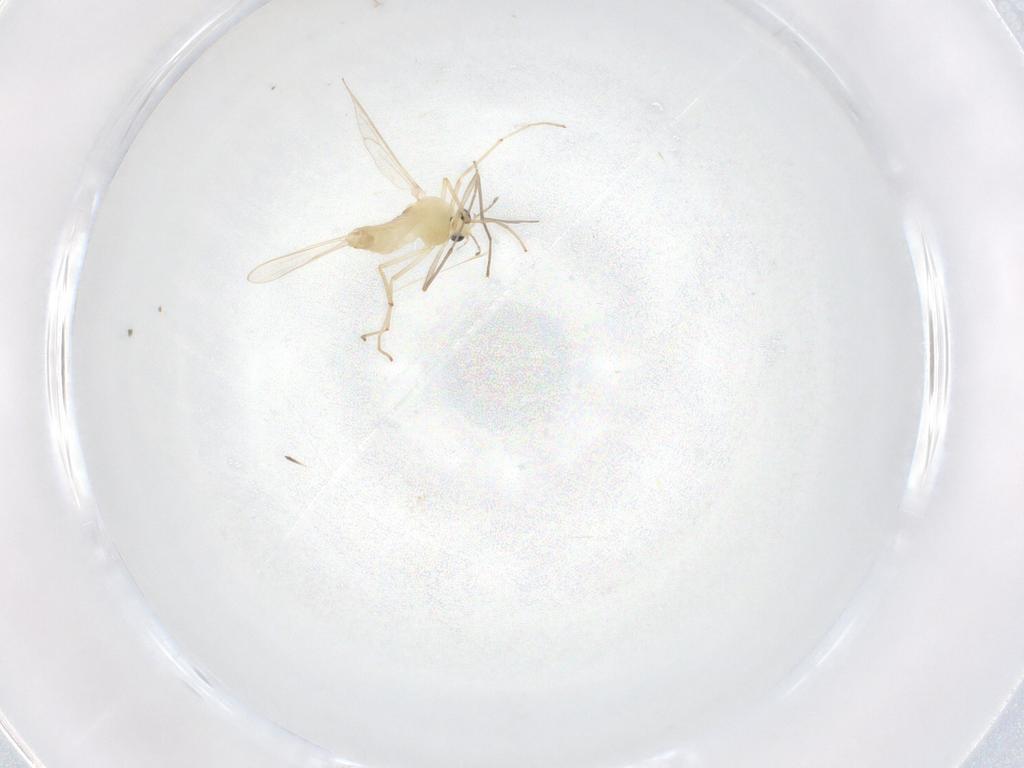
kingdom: Animalia
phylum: Arthropoda
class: Insecta
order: Diptera
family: Chironomidae
